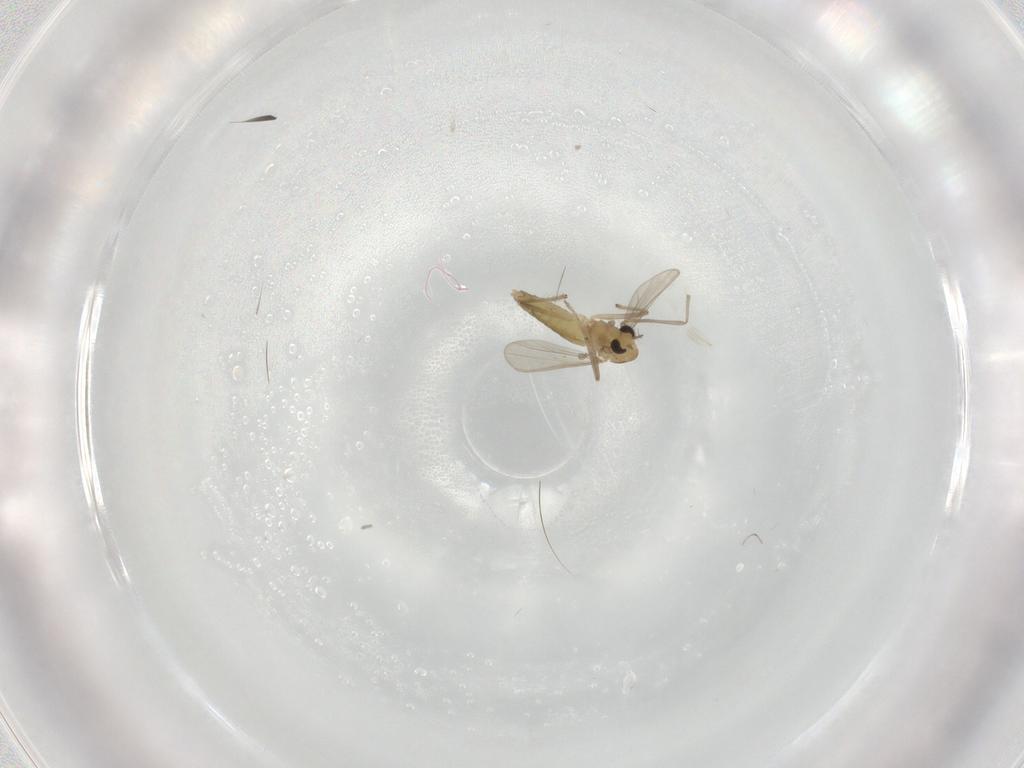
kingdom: Animalia
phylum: Arthropoda
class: Insecta
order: Diptera
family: Chironomidae
